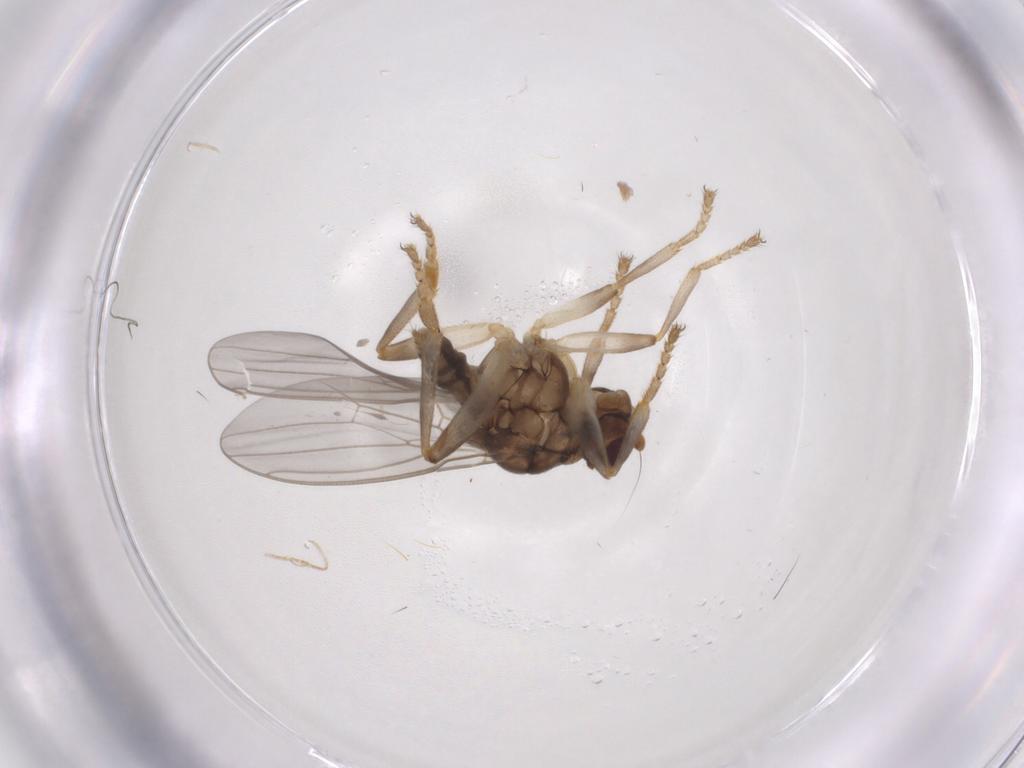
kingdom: Animalia
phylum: Arthropoda
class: Insecta
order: Diptera
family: Sphaeroceridae
